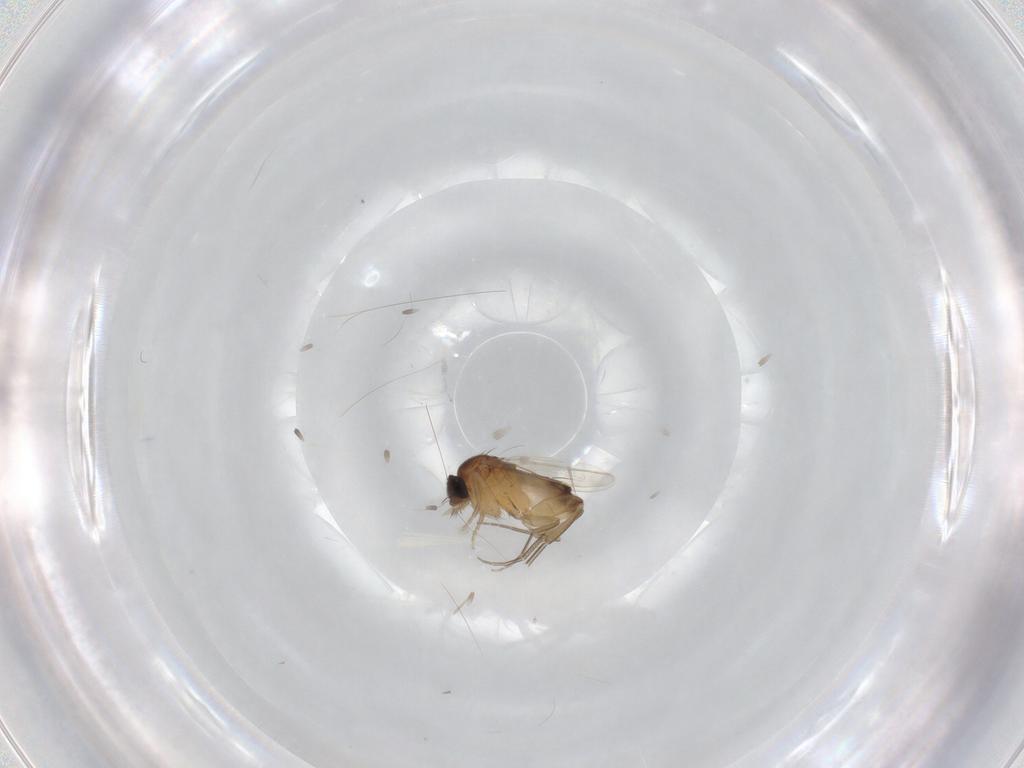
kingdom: Animalia
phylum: Arthropoda
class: Insecta
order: Diptera
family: Phoridae
